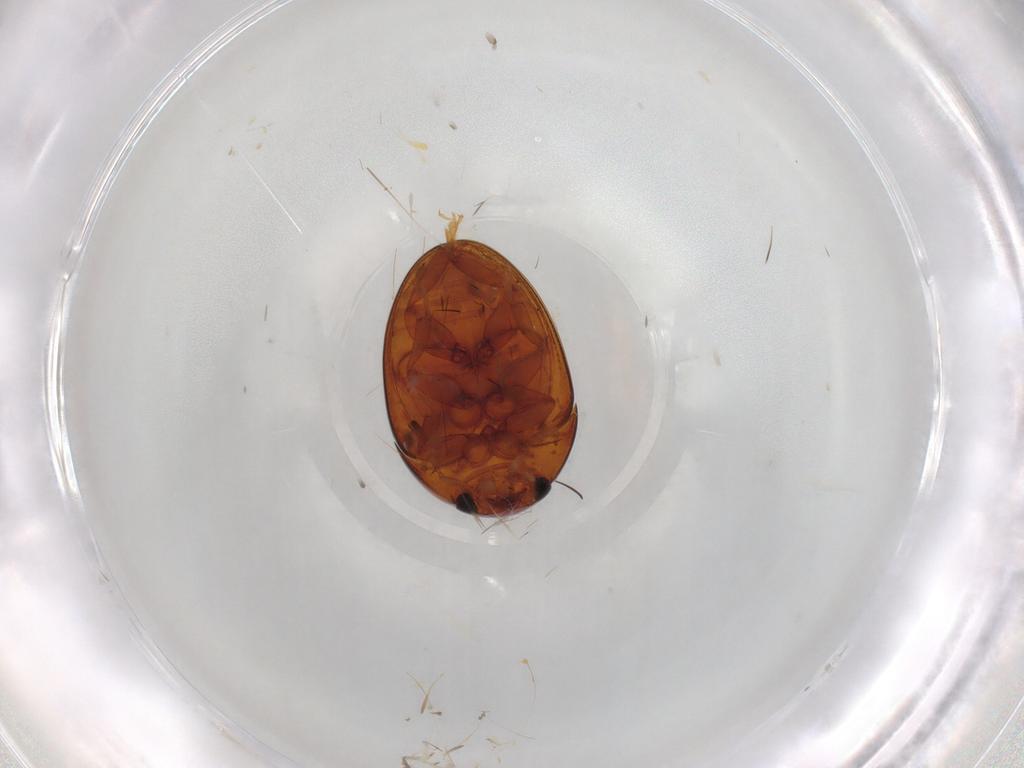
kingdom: Animalia
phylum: Arthropoda
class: Insecta
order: Coleoptera
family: Phalacridae
